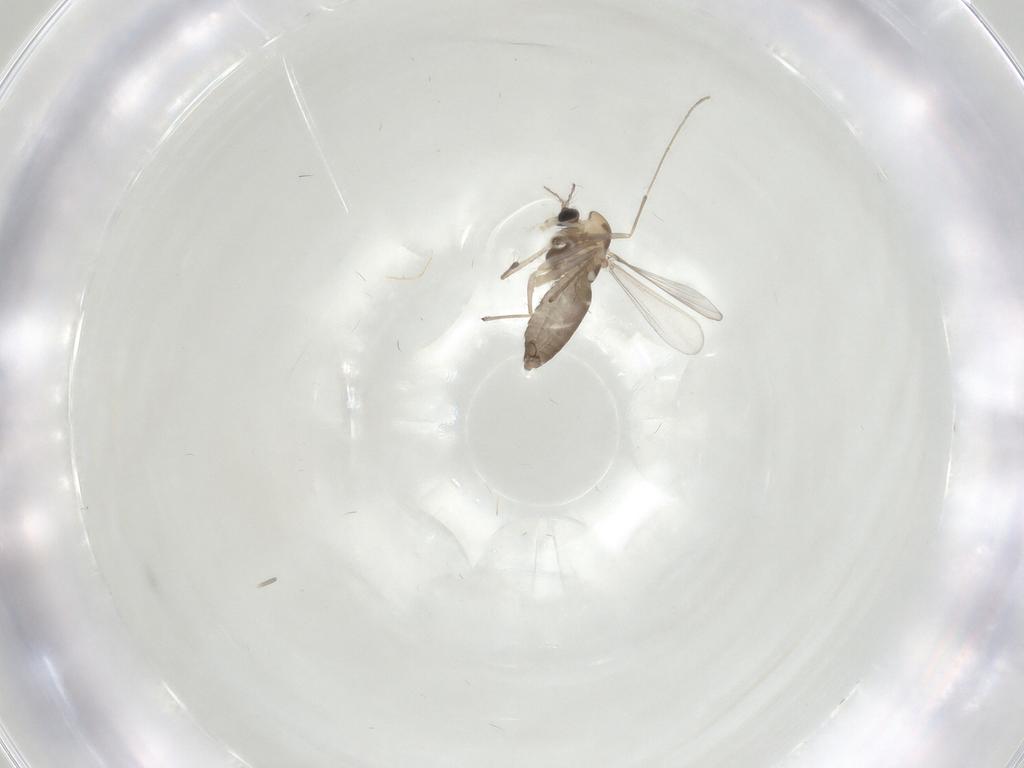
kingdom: Animalia
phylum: Arthropoda
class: Insecta
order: Diptera
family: Chironomidae
